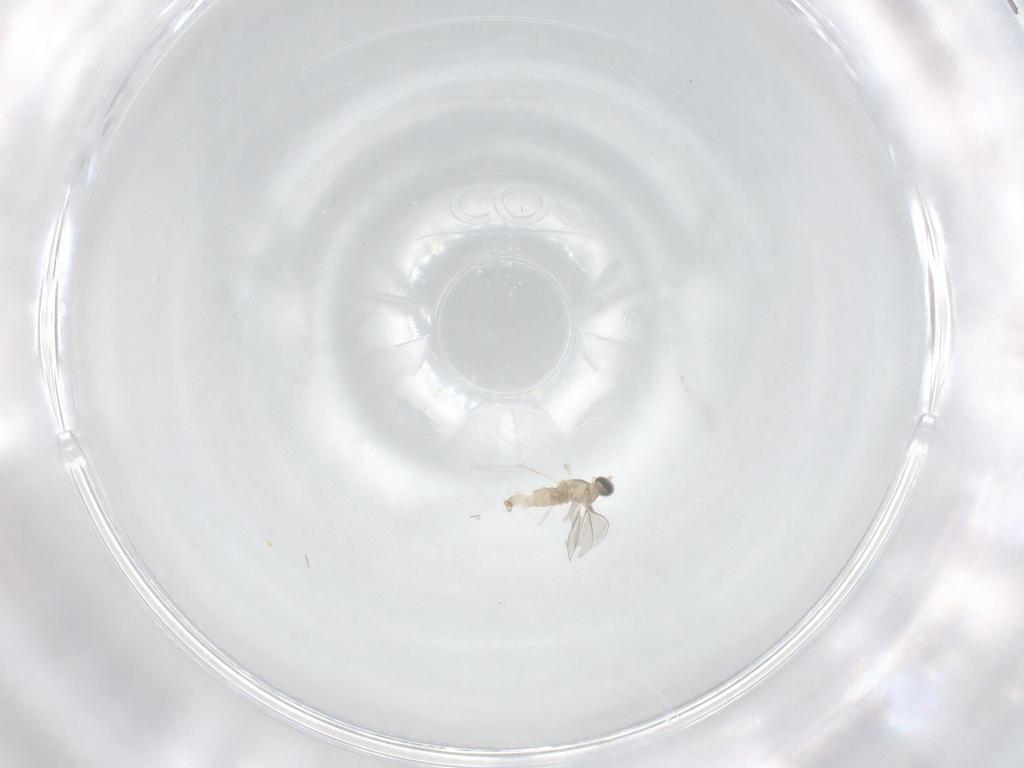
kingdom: Animalia
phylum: Arthropoda
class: Insecta
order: Diptera
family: Cecidomyiidae
